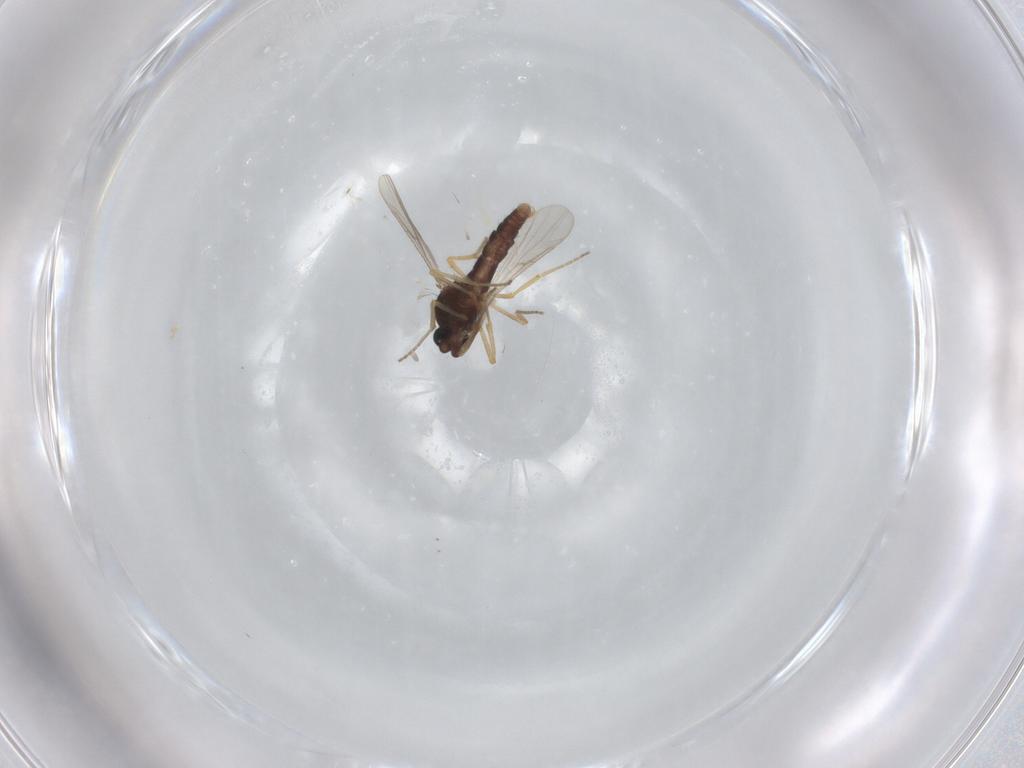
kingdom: Animalia
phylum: Arthropoda
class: Insecta
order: Diptera
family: Ceratopogonidae
